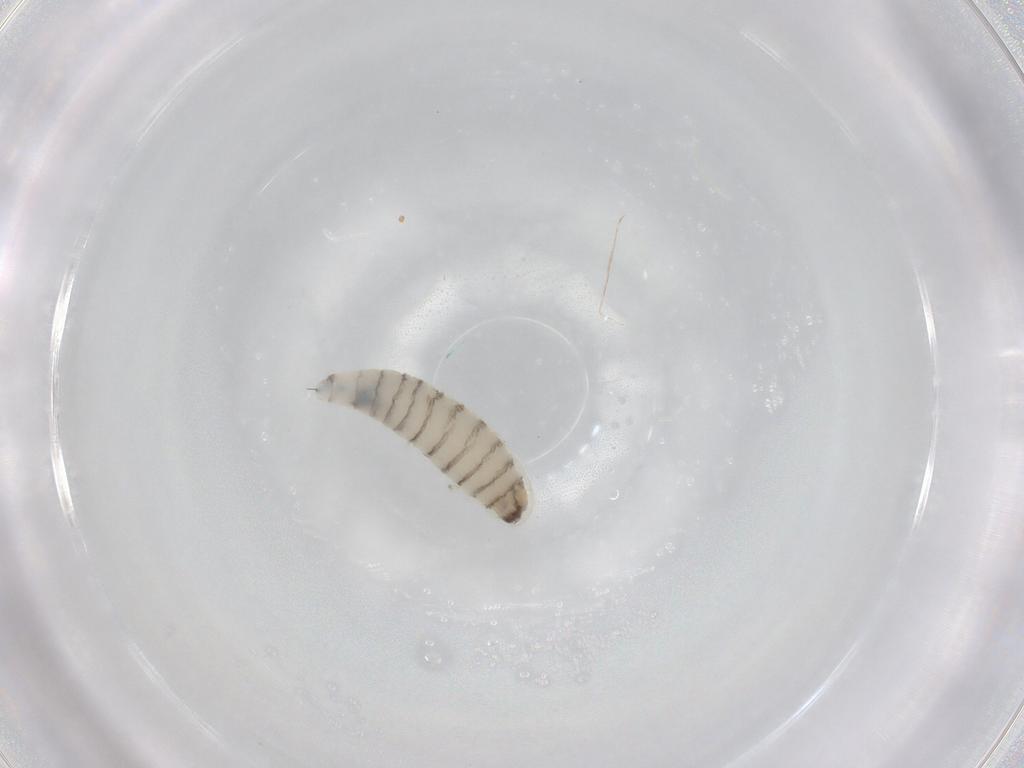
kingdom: Animalia
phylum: Arthropoda
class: Insecta
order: Diptera
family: Sarcophagidae
